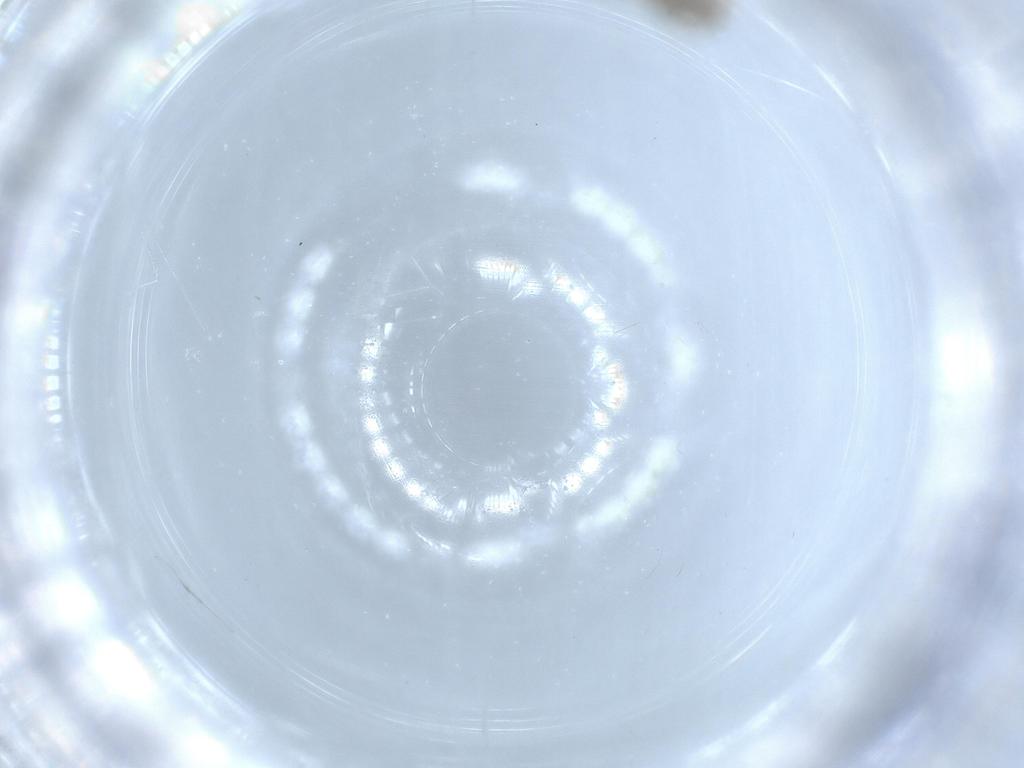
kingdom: Animalia
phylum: Arthropoda
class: Insecta
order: Diptera
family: Chironomidae
